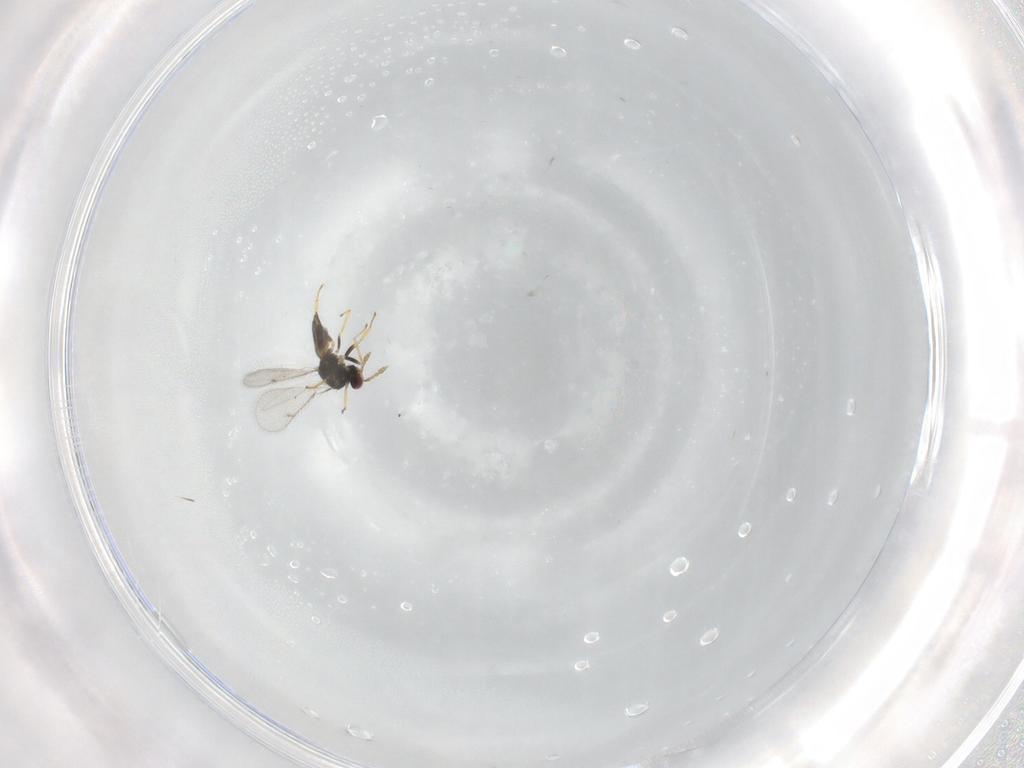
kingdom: Animalia
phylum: Arthropoda
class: Insecta
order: Hymenoptera
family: Eulophidae
